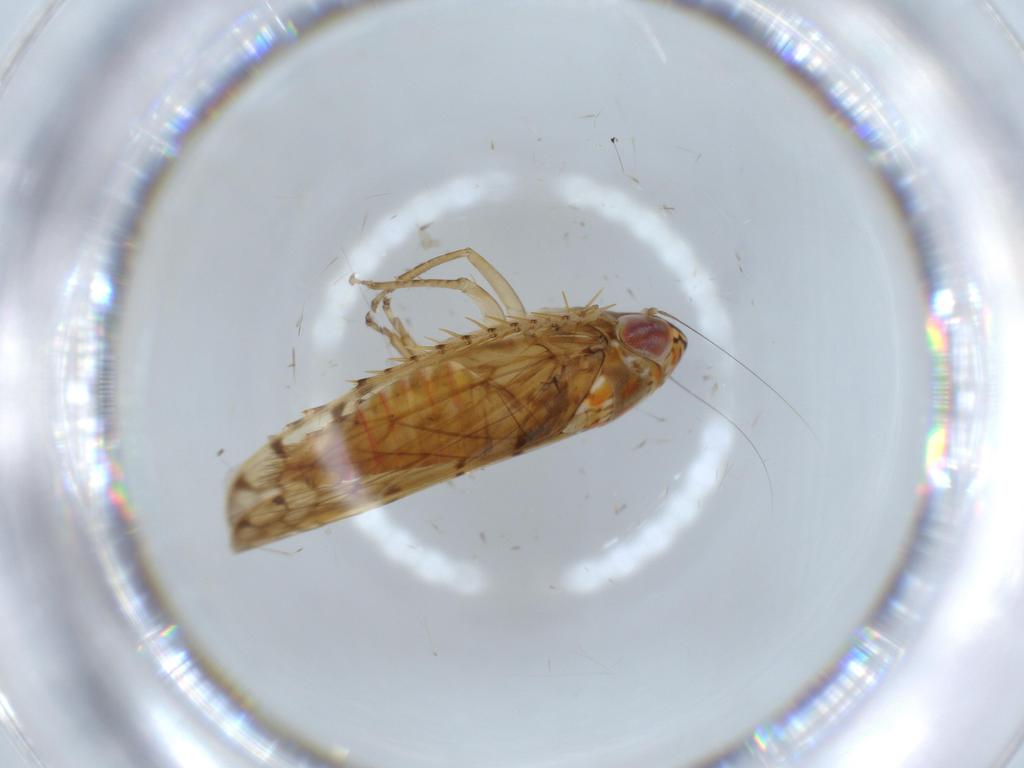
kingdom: Animalia
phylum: Arthropoda
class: Insecta
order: Hemiptera
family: Cicadellidae
